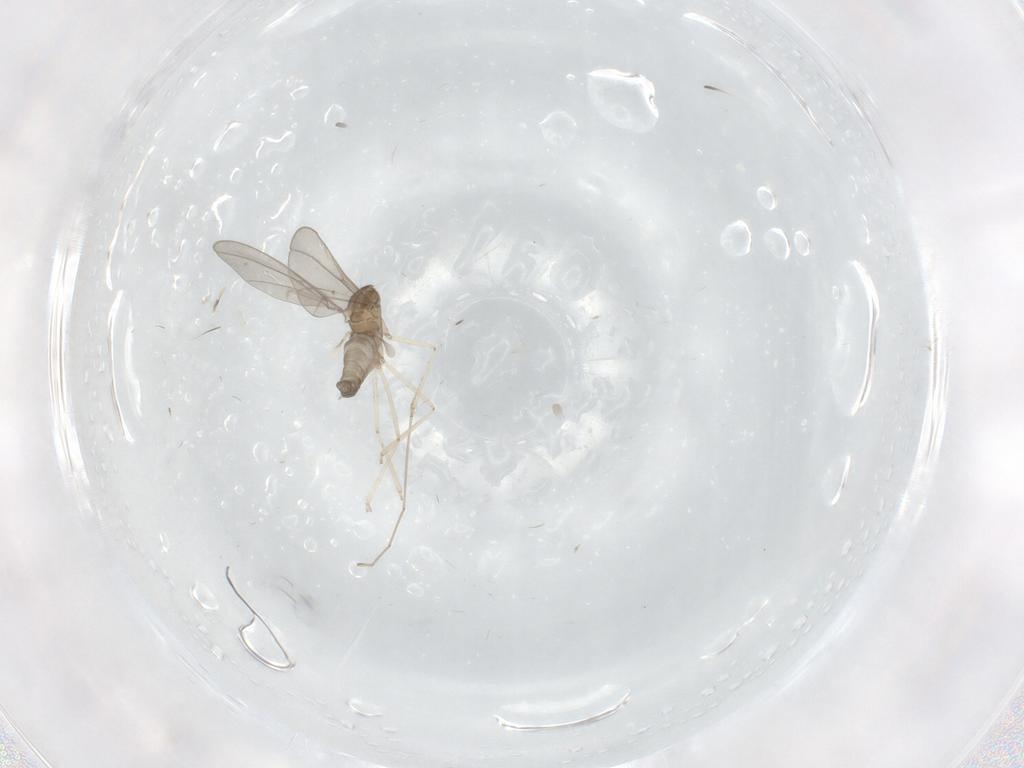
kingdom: Animalia
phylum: Arthropoda
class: Insecta
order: Diptera
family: Cecidomyiidae
